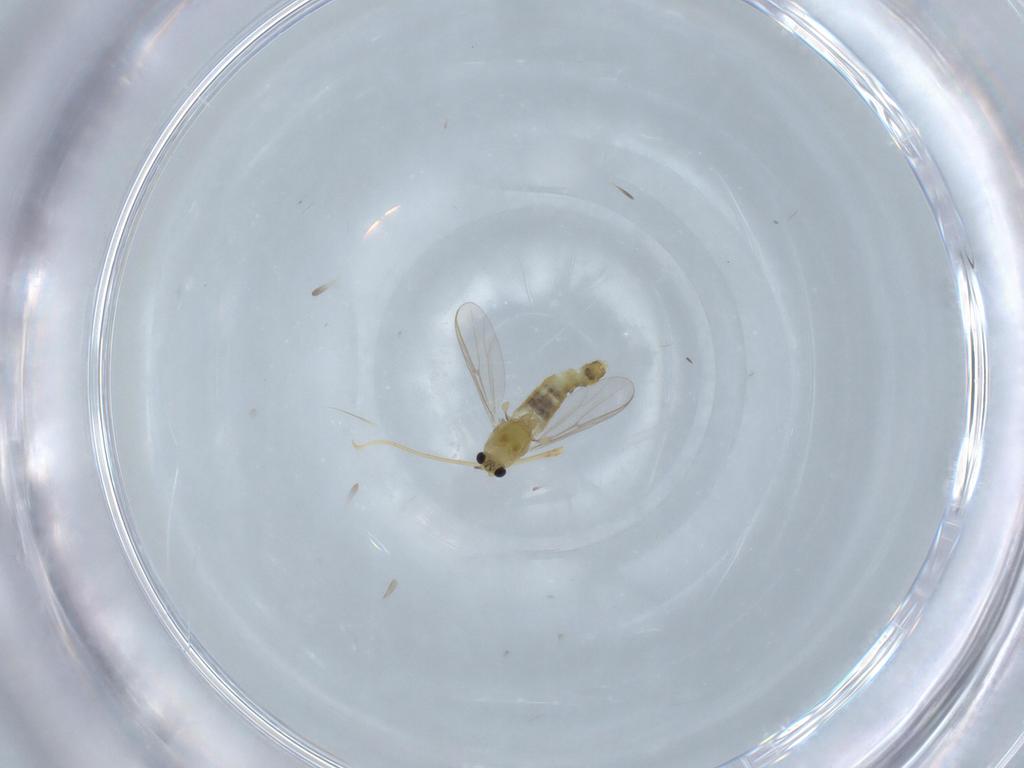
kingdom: Animalia
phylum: Arthropoda
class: Insecta
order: Diptera
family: Chironomidae
